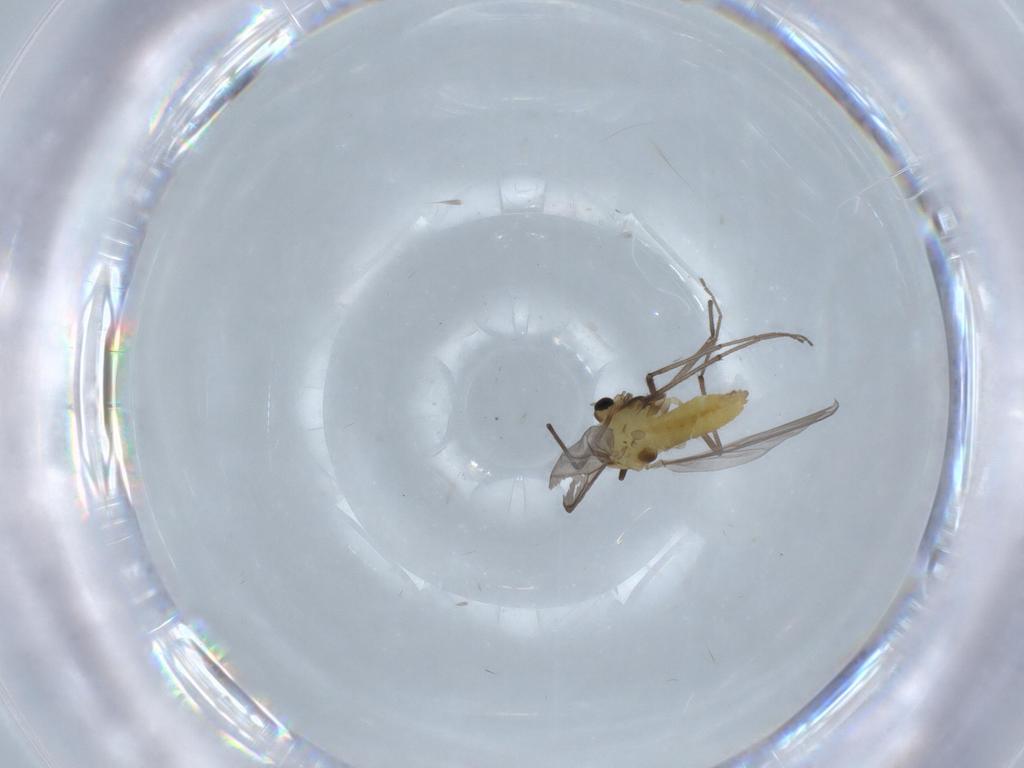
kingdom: Animalia
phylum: Arthropoda
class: Insecta
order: Diptera
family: Chironomidae
